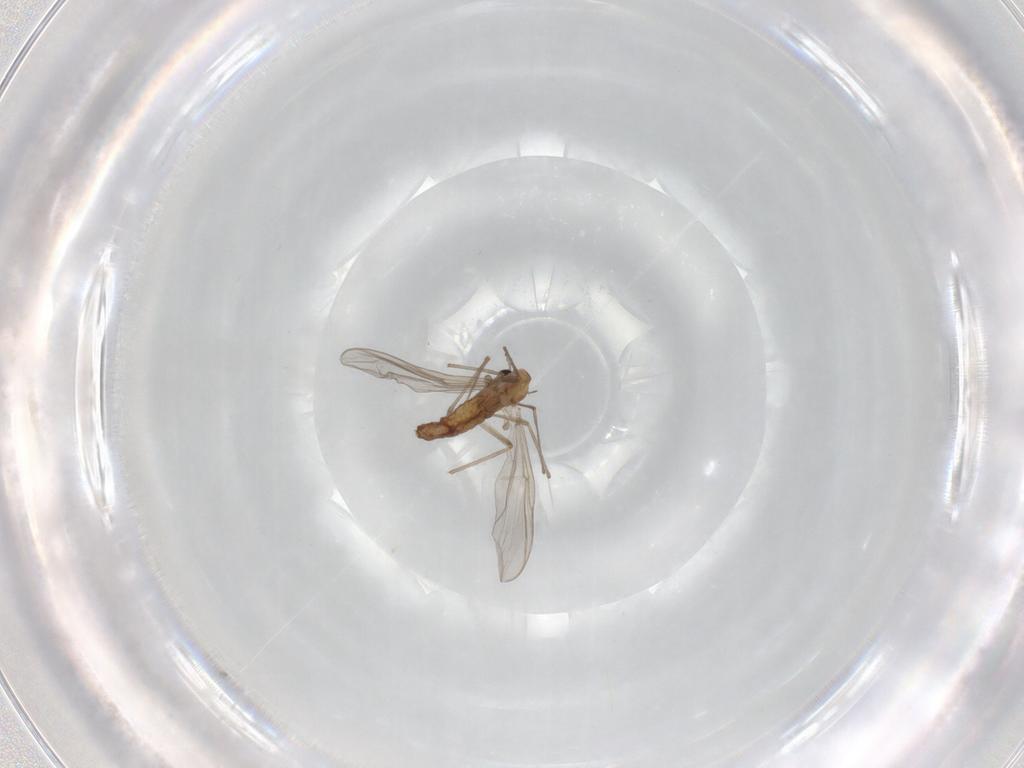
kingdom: Animalia
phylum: Arthropoda
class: Insecta
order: Diptera
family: Chironomidae
